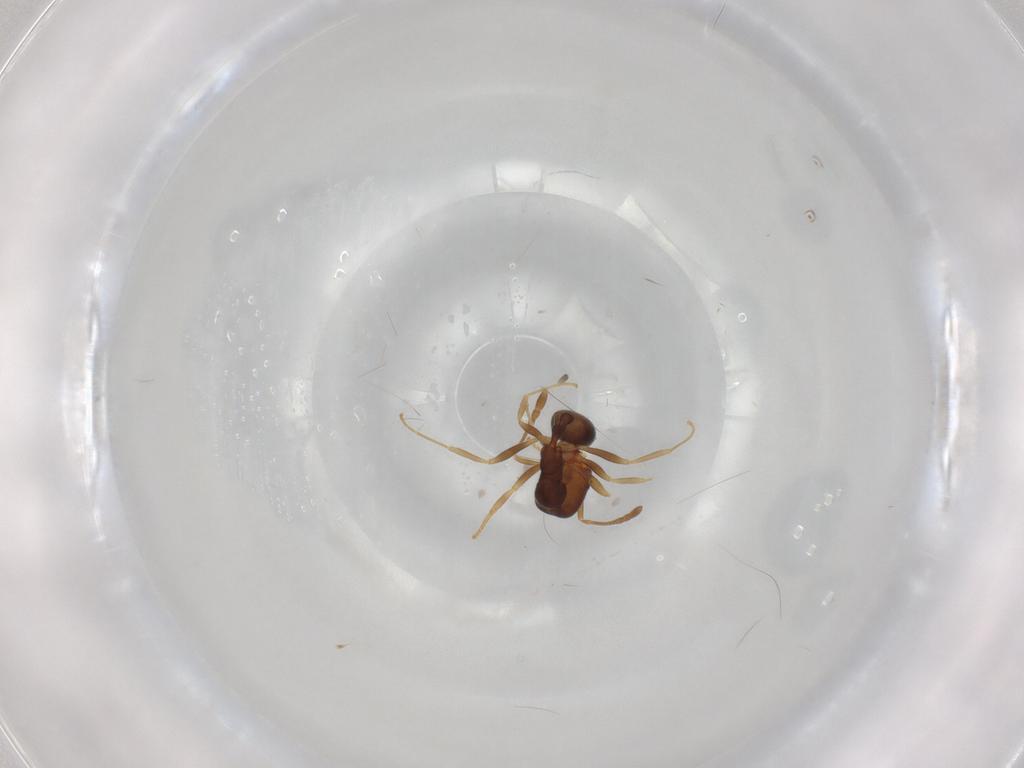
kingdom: Animalia
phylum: Arthropoda
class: Insecta
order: Hymenoptera
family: Formicidae
